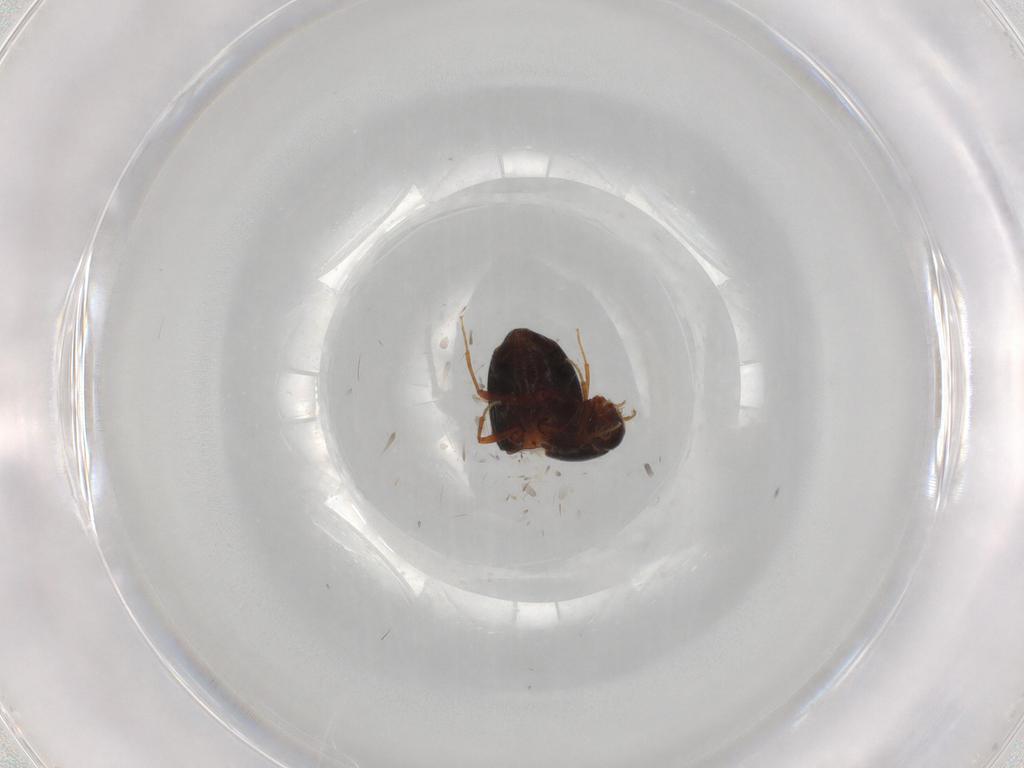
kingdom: Animalia
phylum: Arthropoda
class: Insecta
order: Coleoptera
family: Staphylinidae
